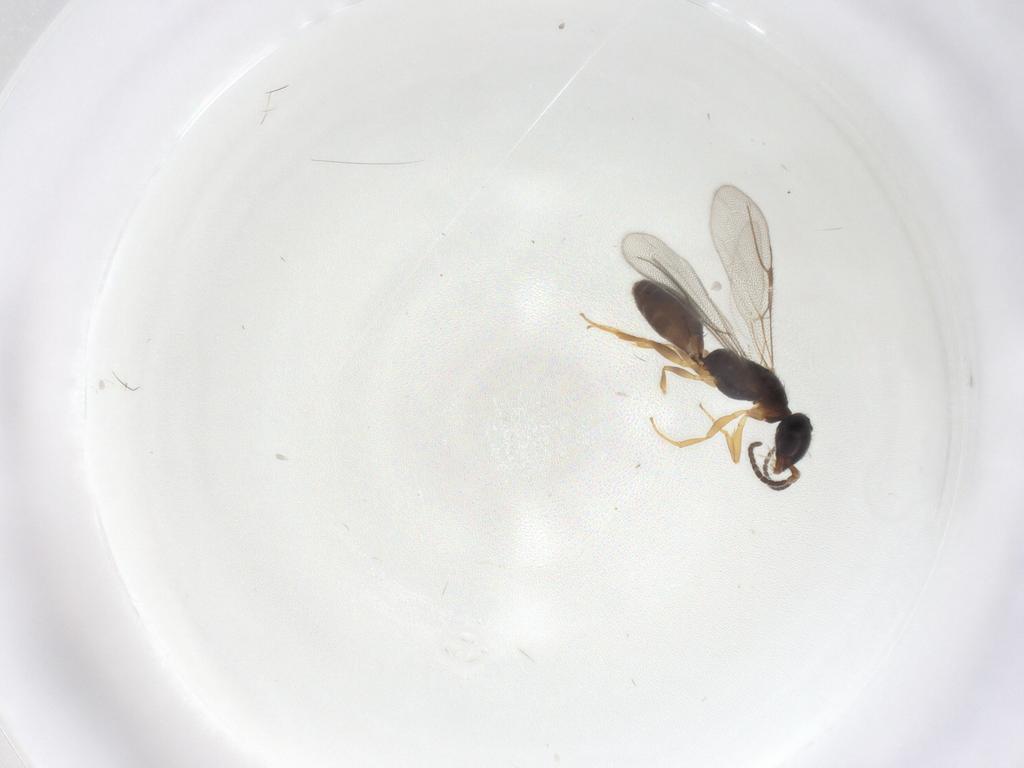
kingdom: Animalia
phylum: Arthropoda
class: Insecta
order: Hymenoptera
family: Bethylidae
